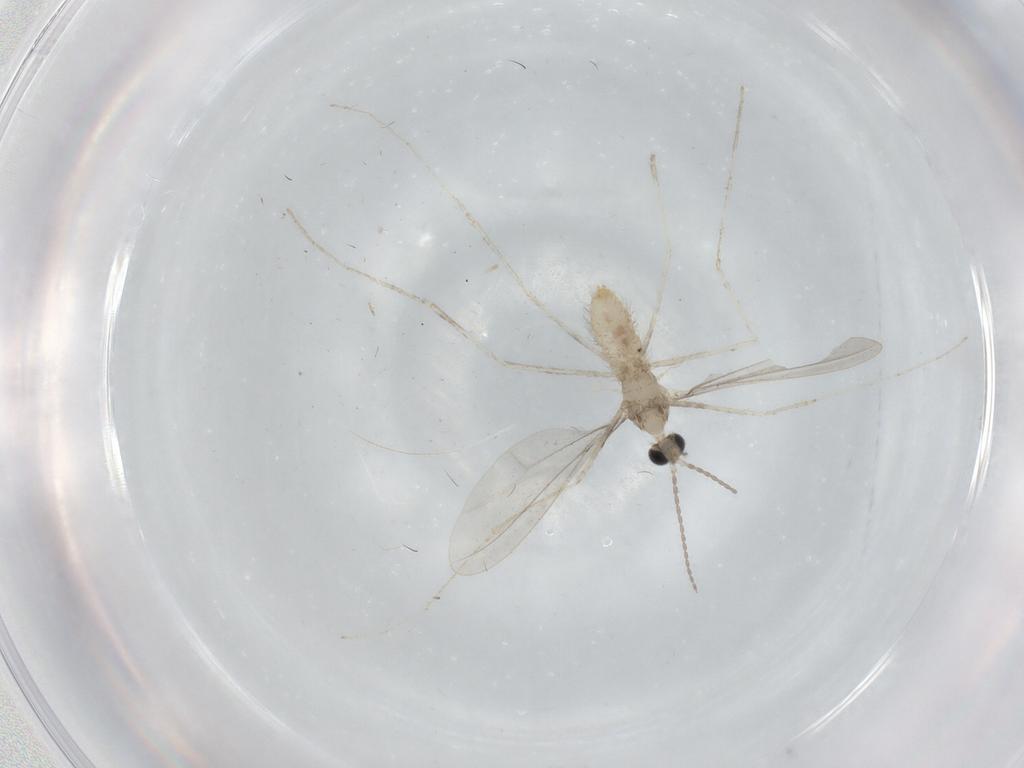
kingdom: Animalia
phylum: Arthropoda
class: Insecta
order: Diptera
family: Cecidomyiidae
